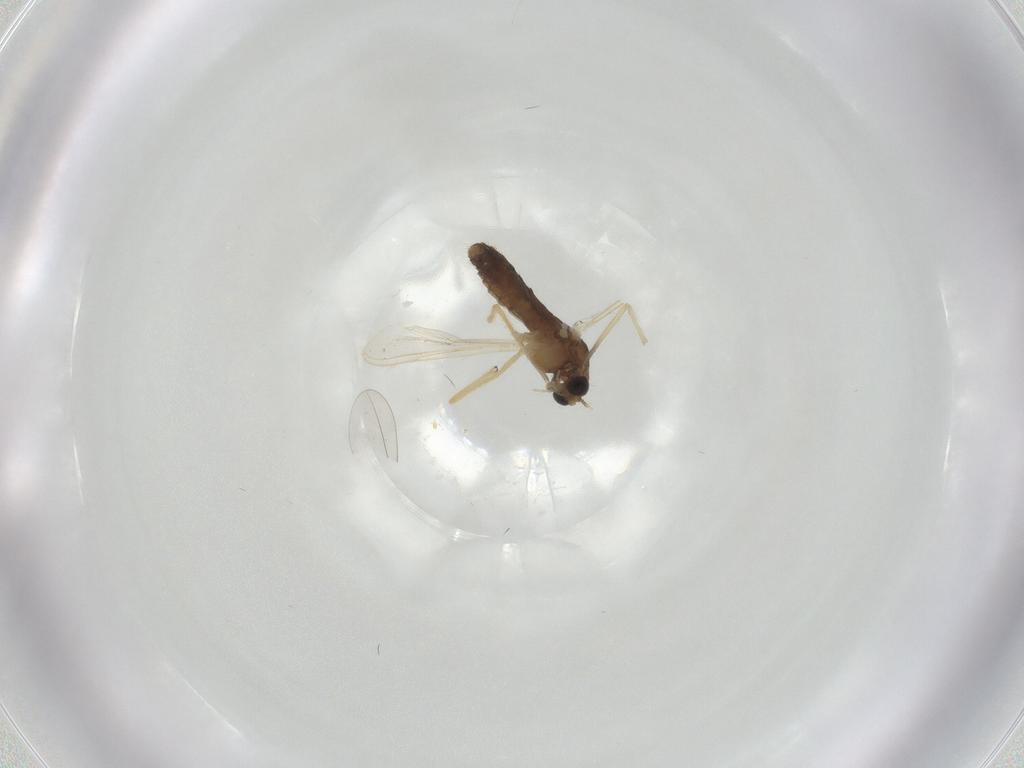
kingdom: Animalia
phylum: Arthropoda
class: Insecta
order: Diptera
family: Chironomidae
